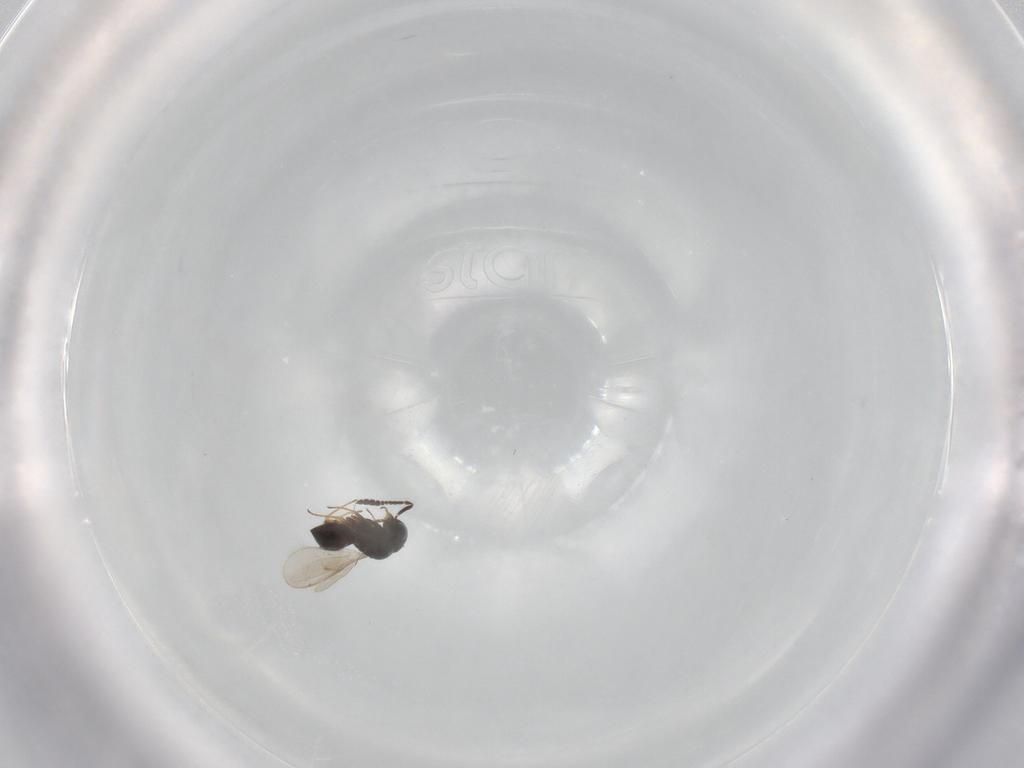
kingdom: Animalia
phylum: Arthropoda
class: Insecta
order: Hymenoptera
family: Scelionidae
